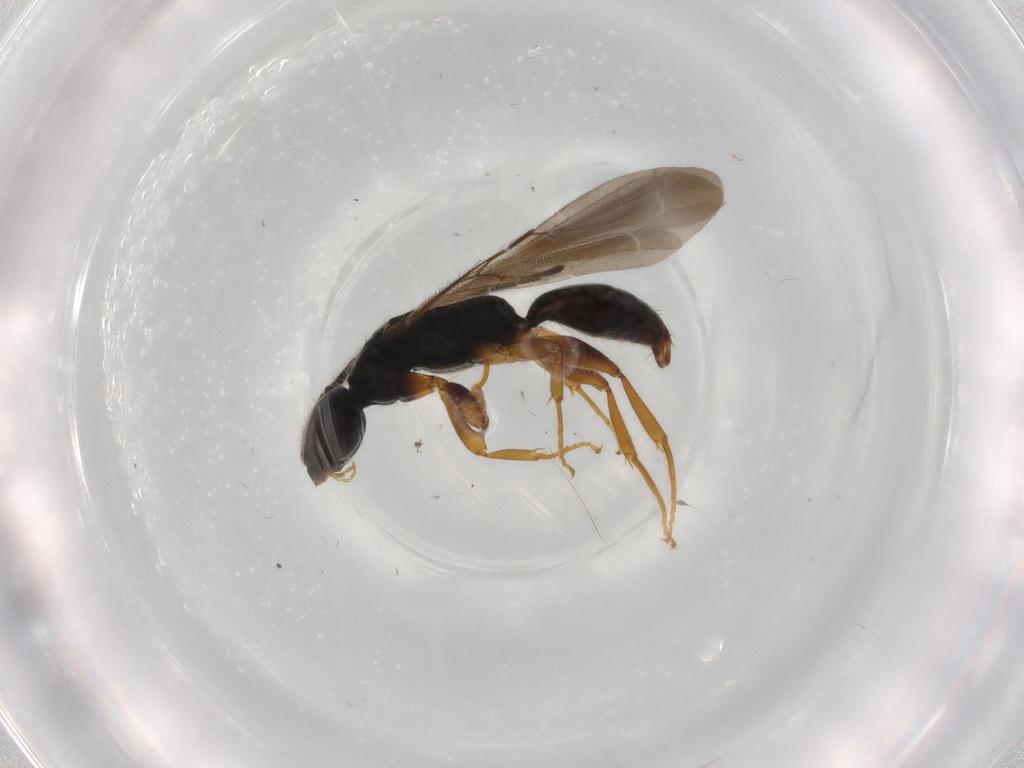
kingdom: Animalia
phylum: Arthropoda
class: Insecta
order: Hymenoptera
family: Bethylidae
